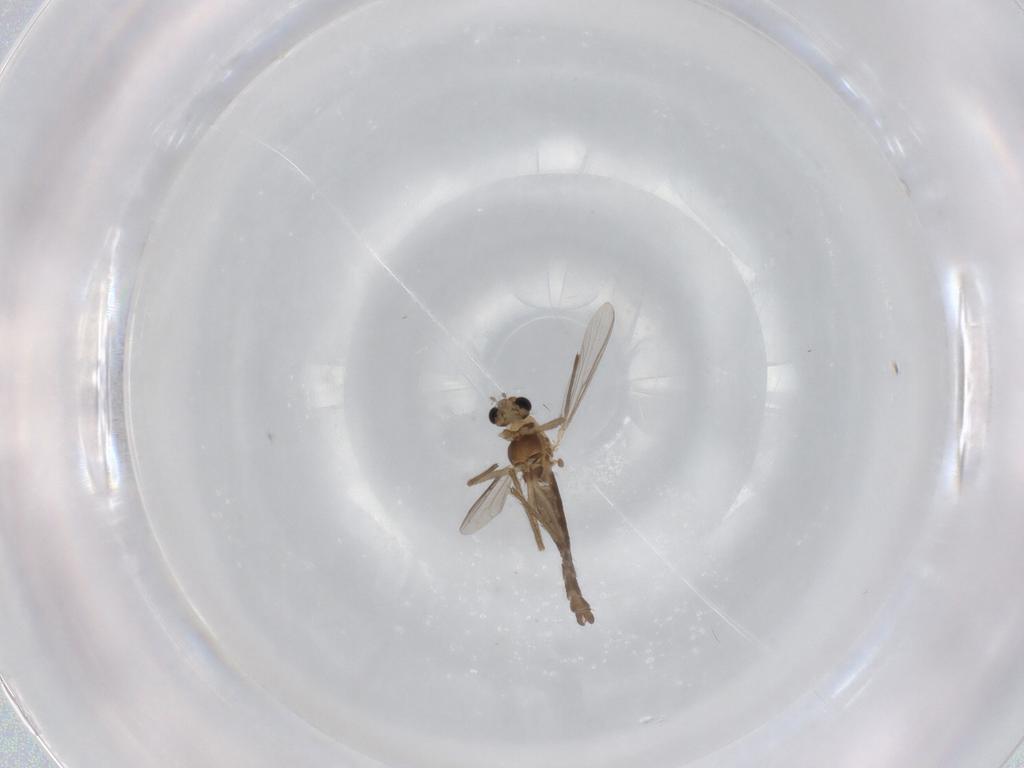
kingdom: Animalia
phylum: Arthropoda
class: Insecta
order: Diptera
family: Chironomidae
